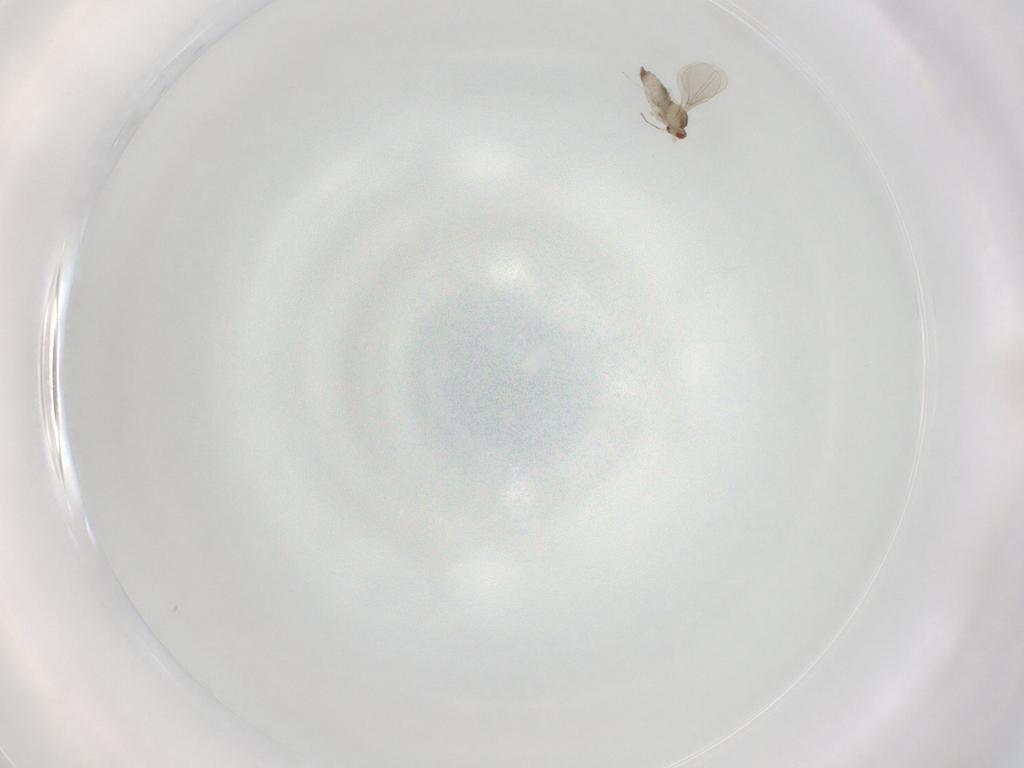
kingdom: Animalia
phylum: Arthropoda
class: Insecta
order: Diptera
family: Cecidomyiidae
